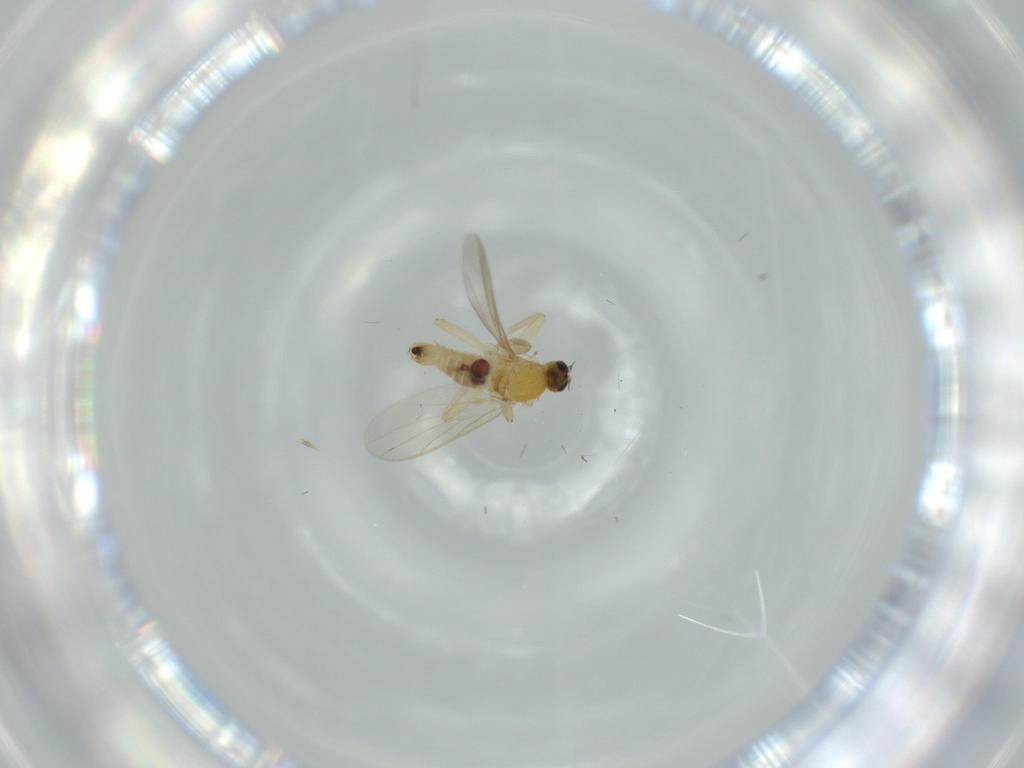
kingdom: Animalia
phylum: Arthropoda
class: Insecta
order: Diptera
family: Hybotidae
